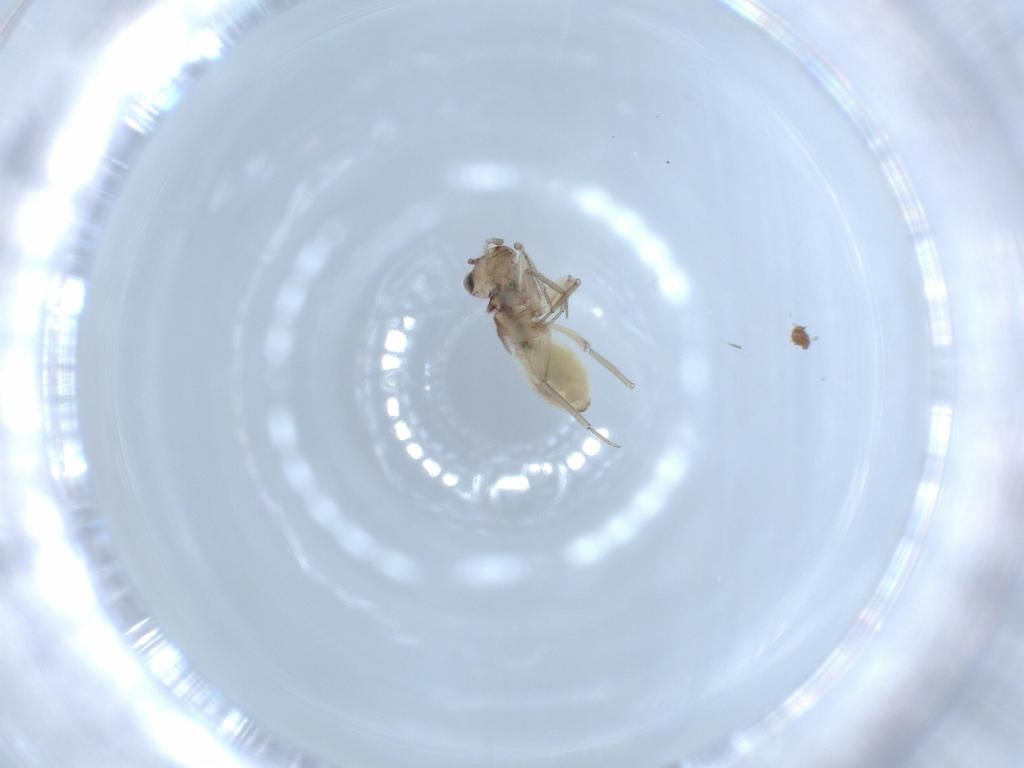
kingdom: Animalia
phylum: Arthropoda
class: Insecta
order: Psocodea
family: Lepidopsocidae
